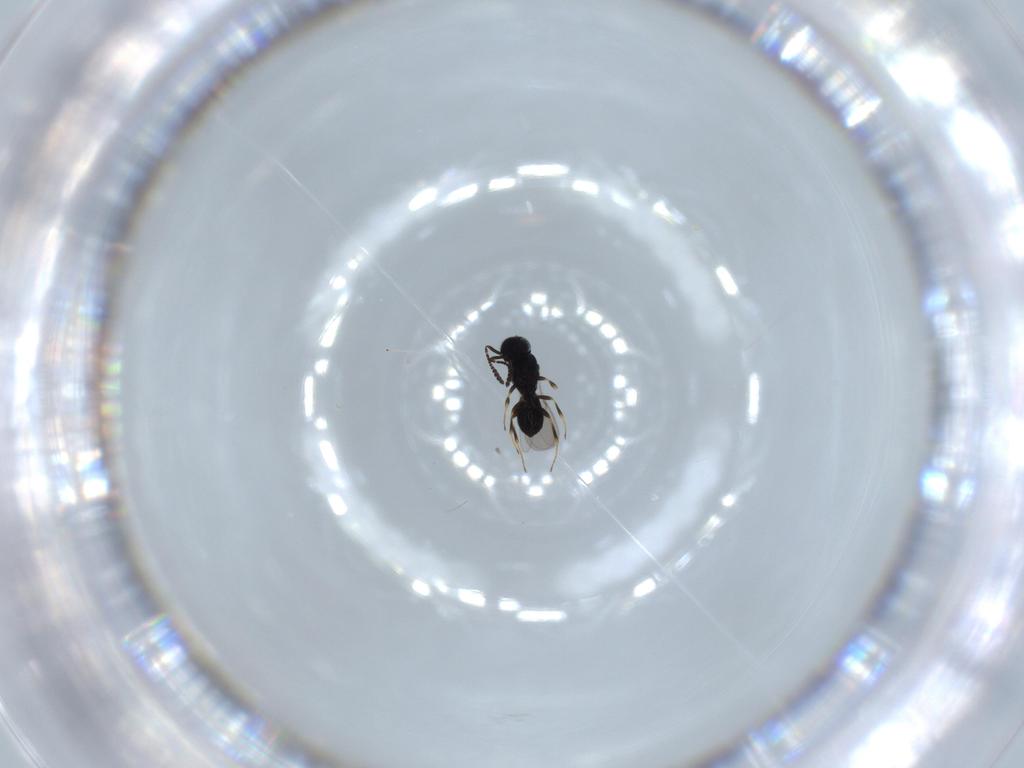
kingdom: Animalia
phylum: Arthropoda
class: Insecta
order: Hymenoptera
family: Scelionidae
